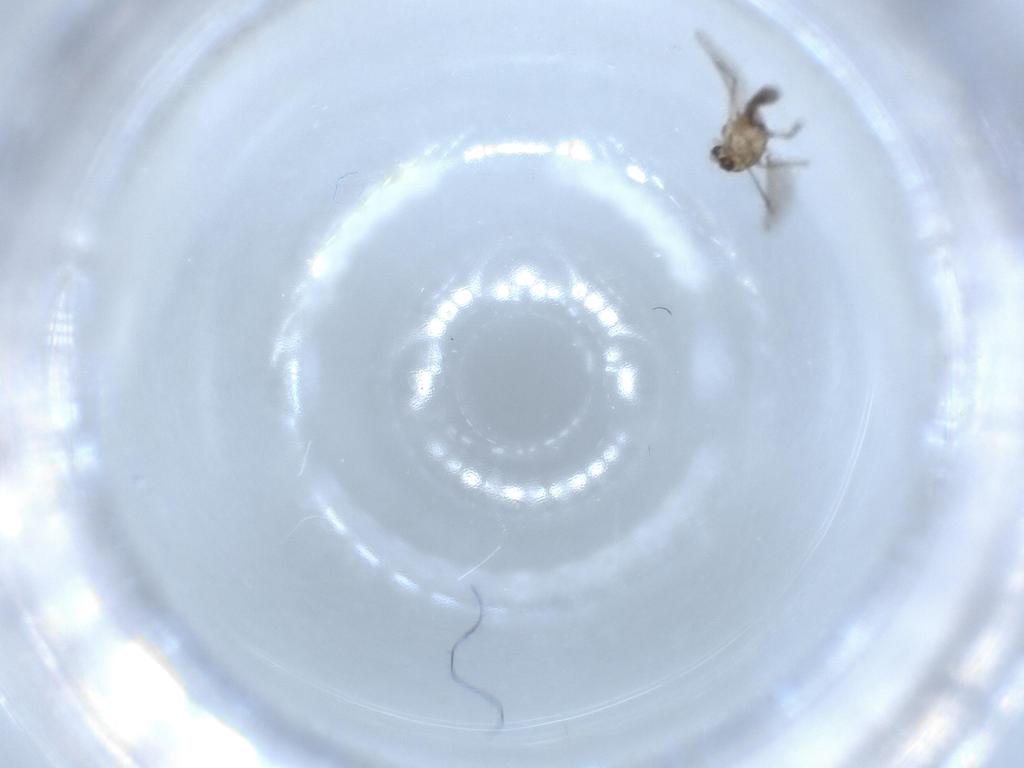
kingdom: Animalia
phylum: Arthropoda
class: Insecta
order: Diptera
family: Chironomidae
